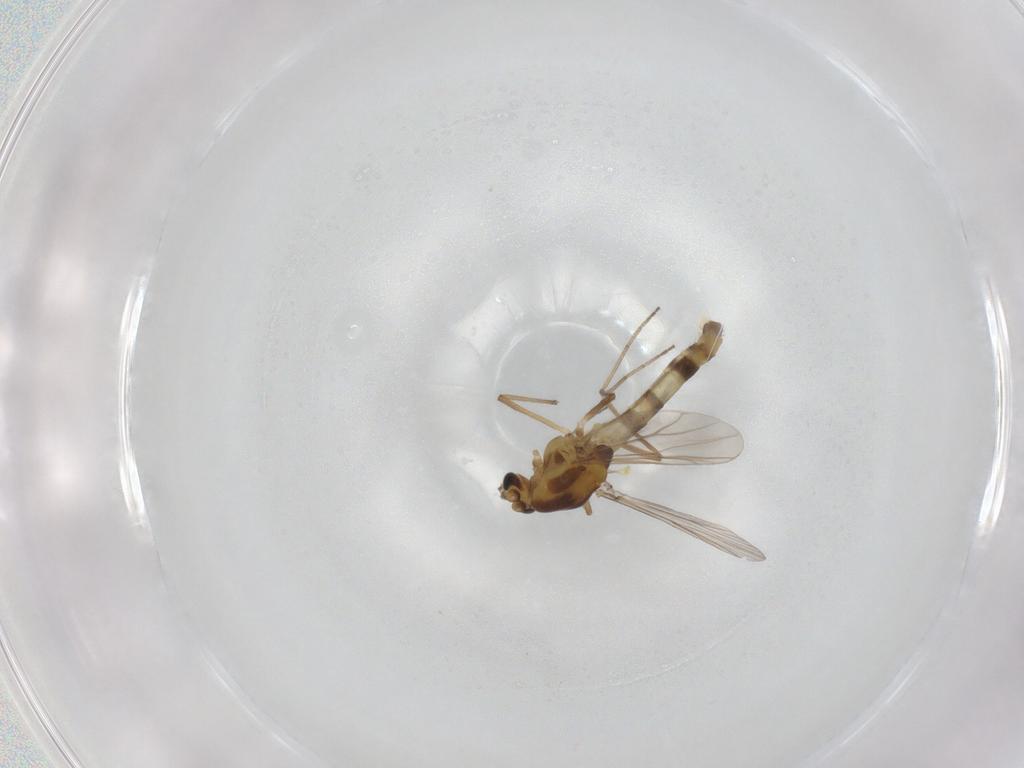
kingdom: Animalia
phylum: Arthropoda
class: Insecta
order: Diptera
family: Chironomidae
